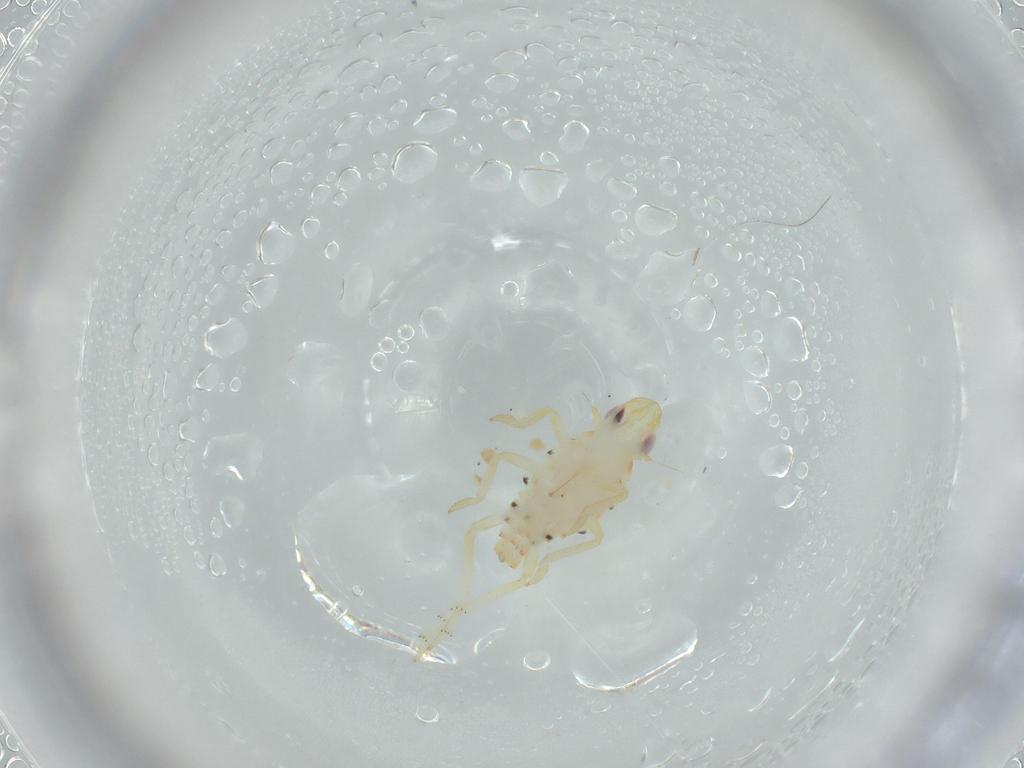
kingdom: Animalia
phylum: Arthropoda
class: Insecta
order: Hemiptera
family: Tropiduchidae
